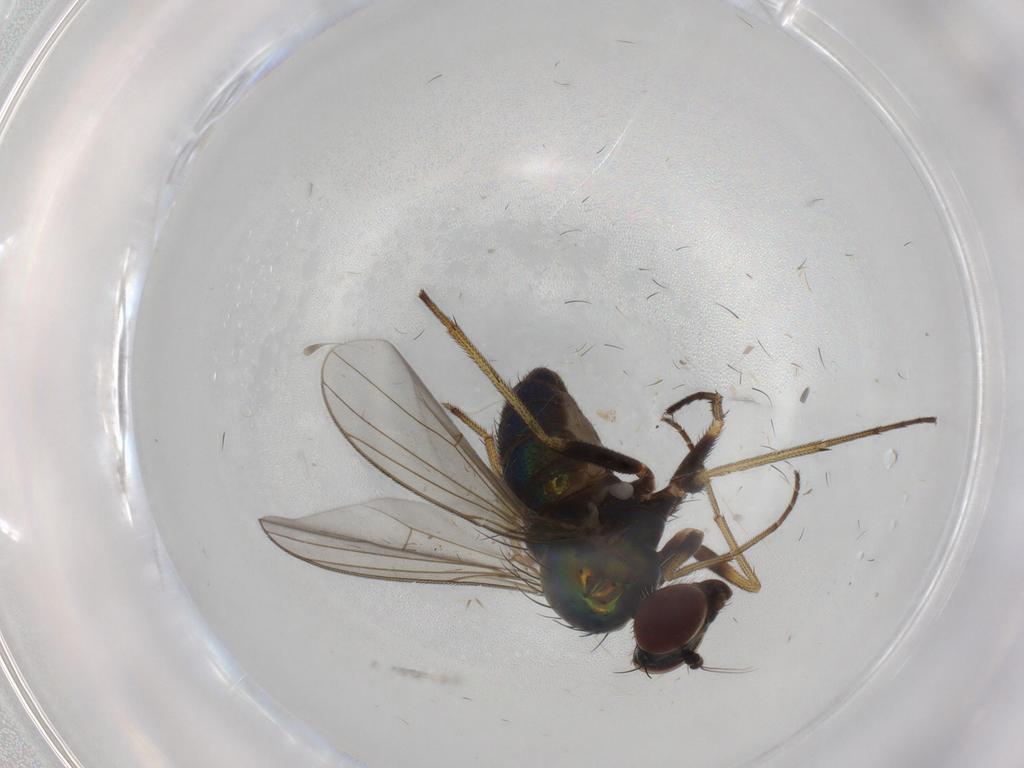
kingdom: Animalia
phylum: Arthropoda
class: Insecta
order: Diptera
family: Dolichopodidae
